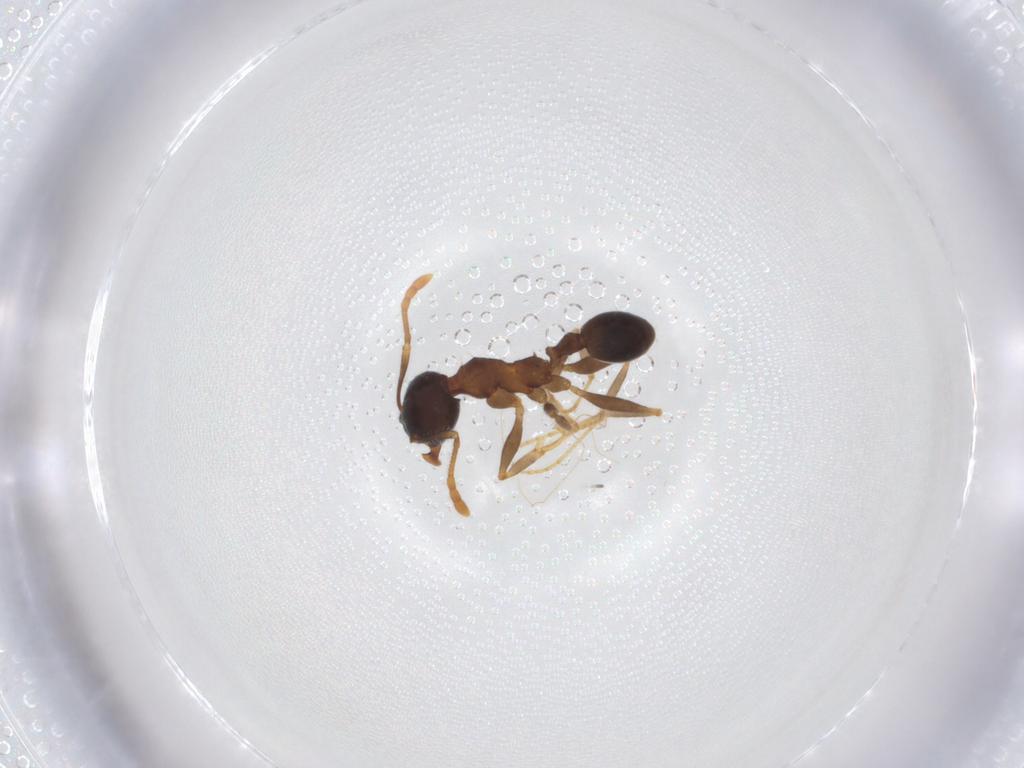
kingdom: Animalia
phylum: Arthropoda
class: Insecta
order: Hymenoptera
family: Formicidae
